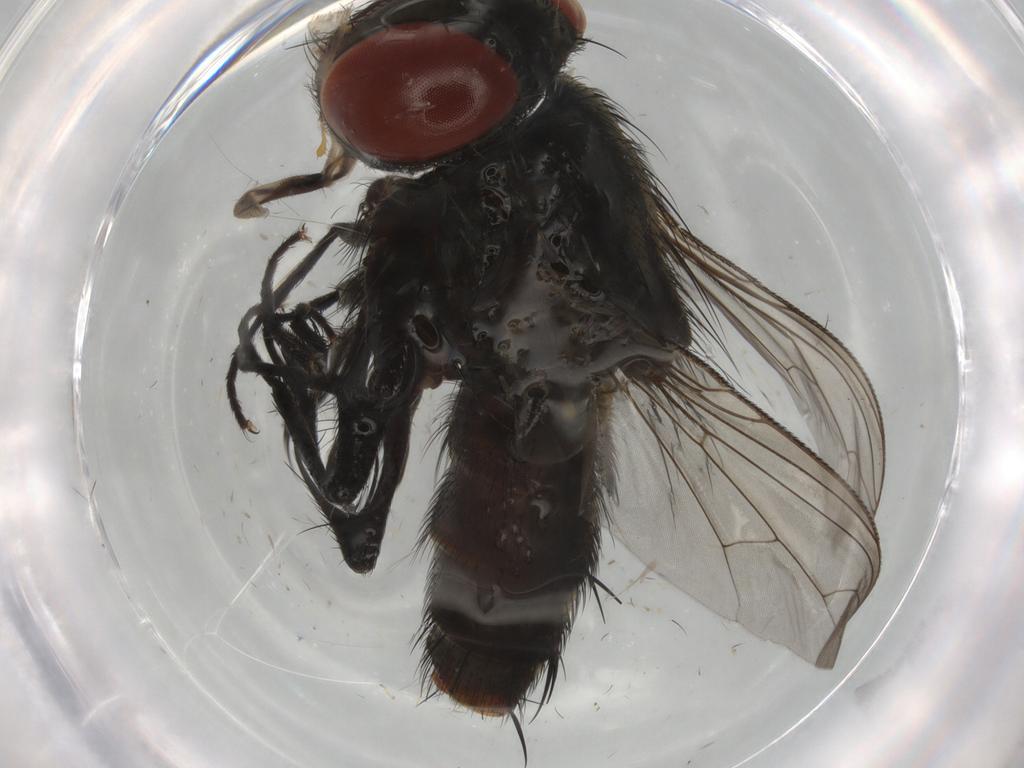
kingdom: Animalia
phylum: Arthropoda
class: Insecta
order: Diptera
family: Sarcophagidae
